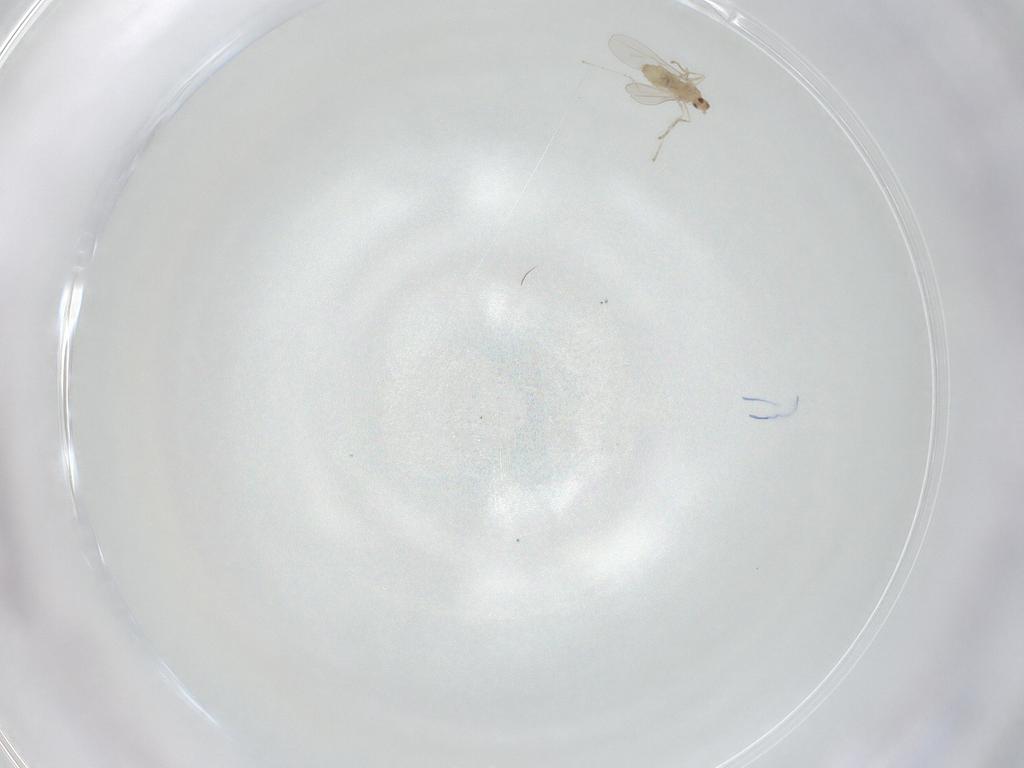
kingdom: Animalia
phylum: Arthropoda
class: Insecta
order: Diptera
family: Cecidomyiidae
